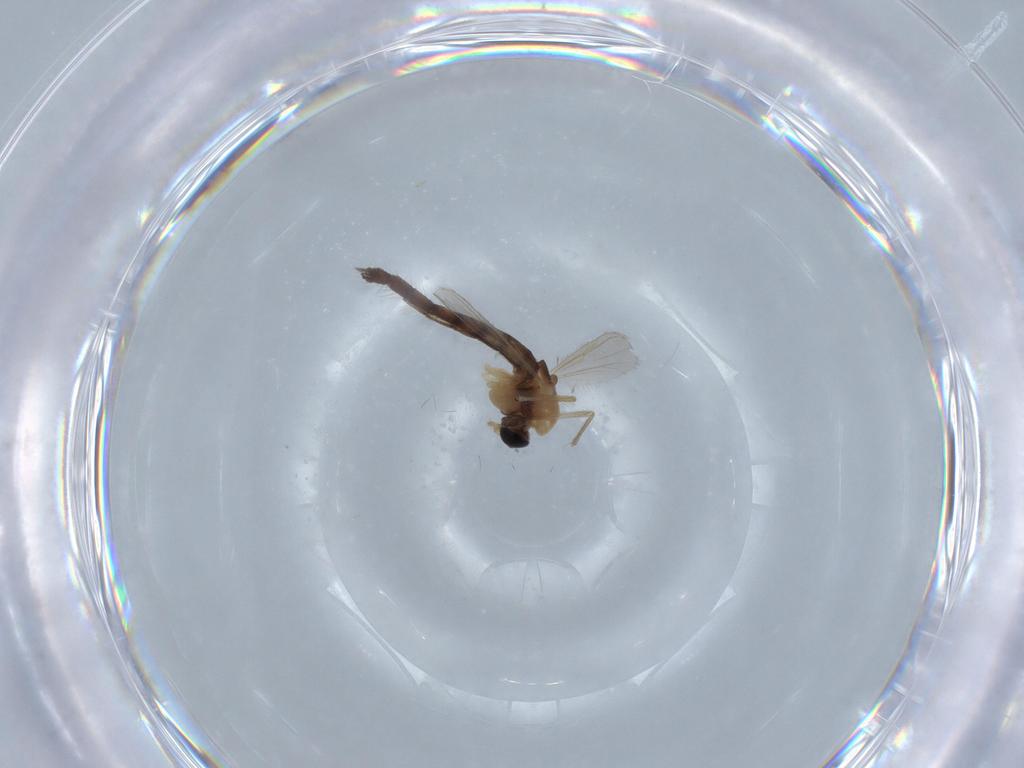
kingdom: Animalia
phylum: Arthropoda
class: Insecta
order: Diptera
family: Chironomidae
